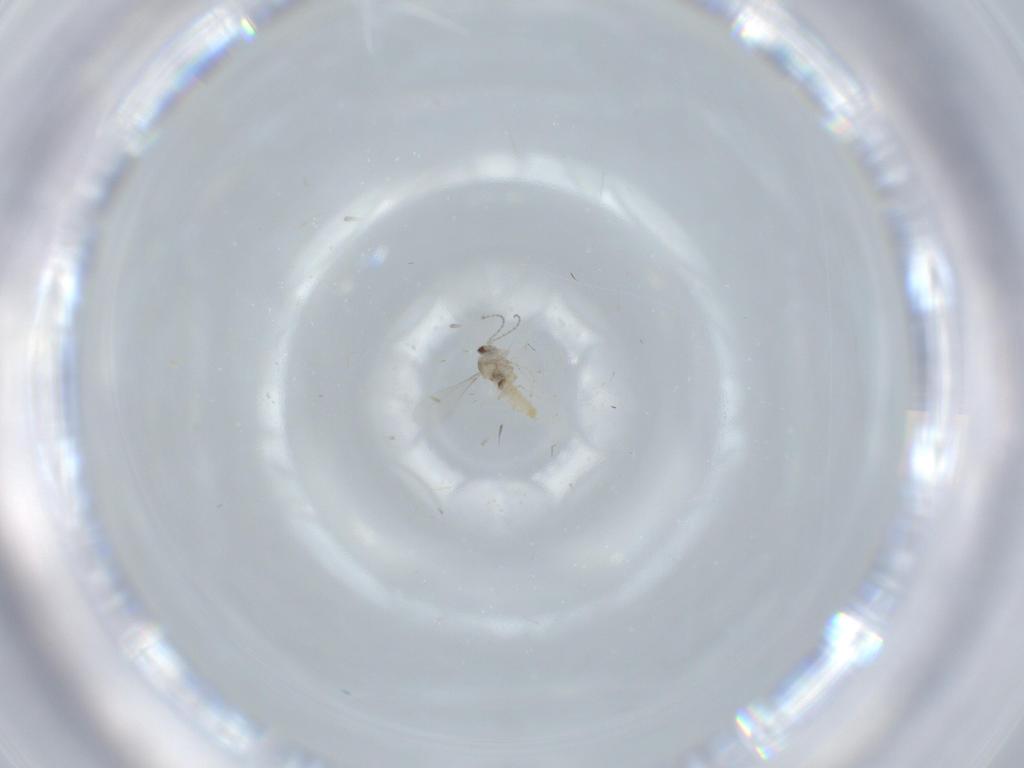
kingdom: Animalia
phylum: Arthropoda
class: Insecta
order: Diptera
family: Cecidomyiidae
